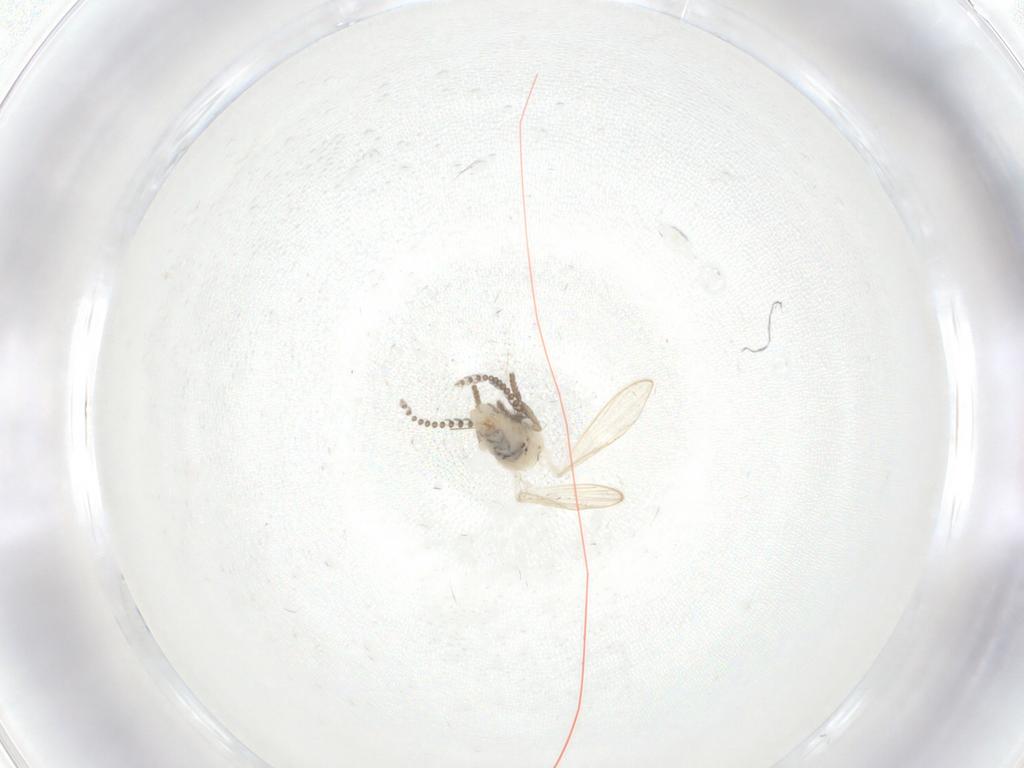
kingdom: Animalia
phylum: Arthropoda
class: Insecta
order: Diptera
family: Psychodidae
